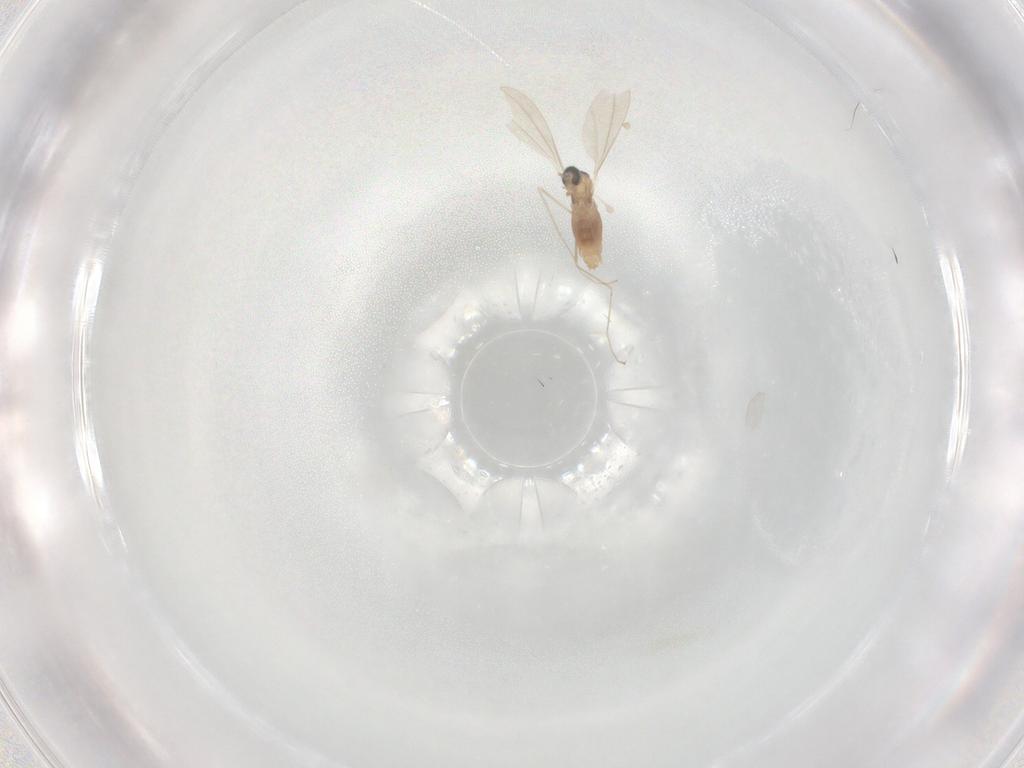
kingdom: Animalia
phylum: Arthropoda
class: Insecta
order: Diptera
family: Cecidomyiidae
